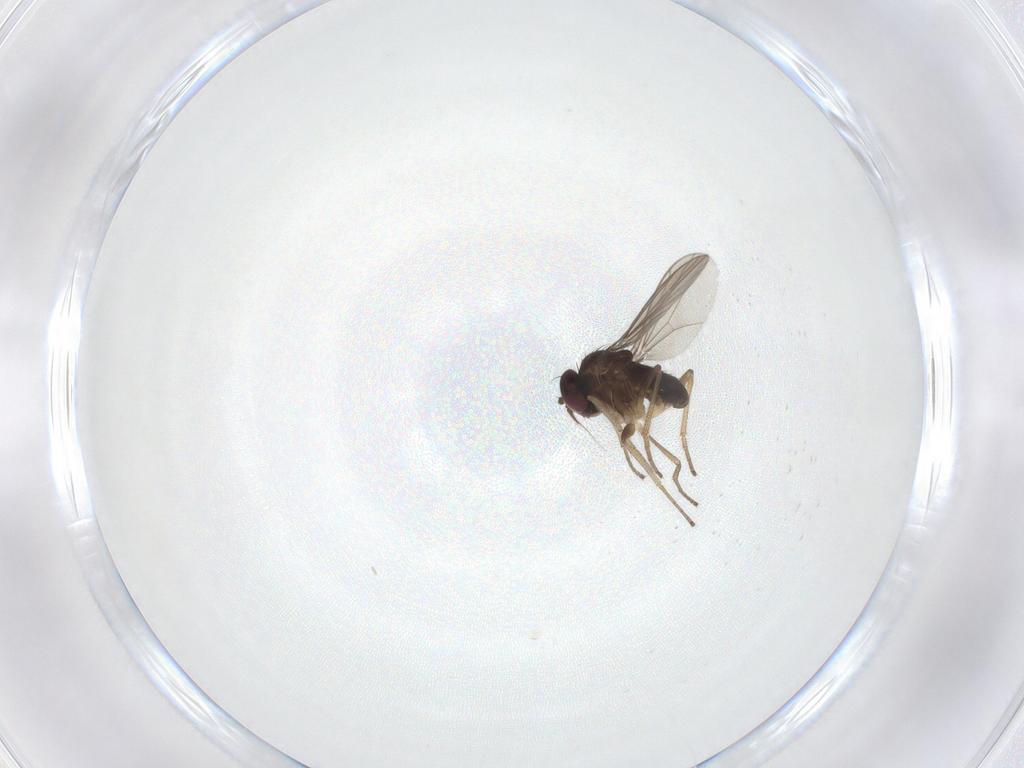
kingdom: Animalia
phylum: Arthropoda
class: Insecta
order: Diptera
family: Dolichopodidae
